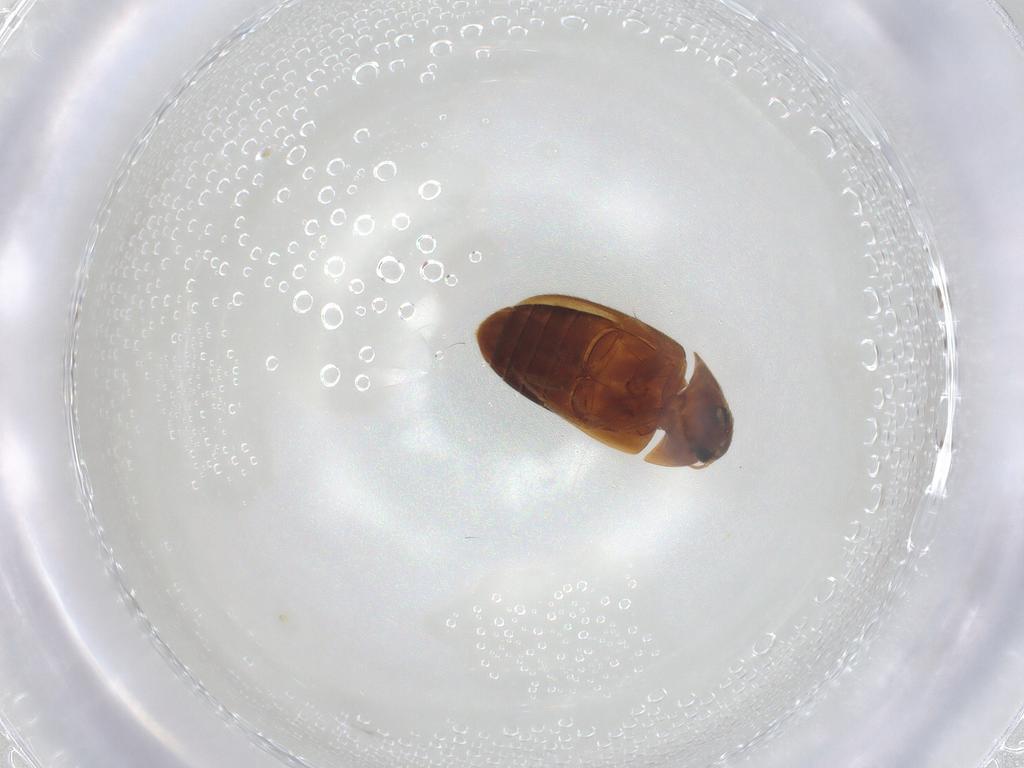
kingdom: Animalia
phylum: Arthropoda
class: Insecta
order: Coleoptera
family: Mycetophagidae
